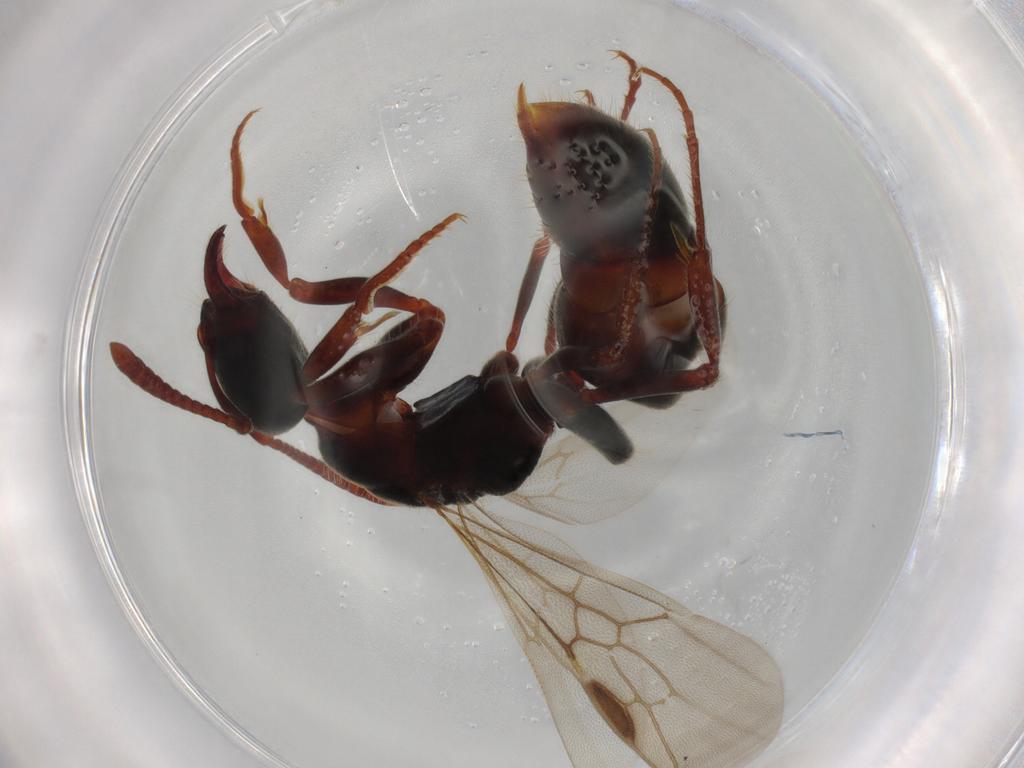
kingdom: Animalia
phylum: Arthropoda
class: Insecta
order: Hymenoptera
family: Formicidae
